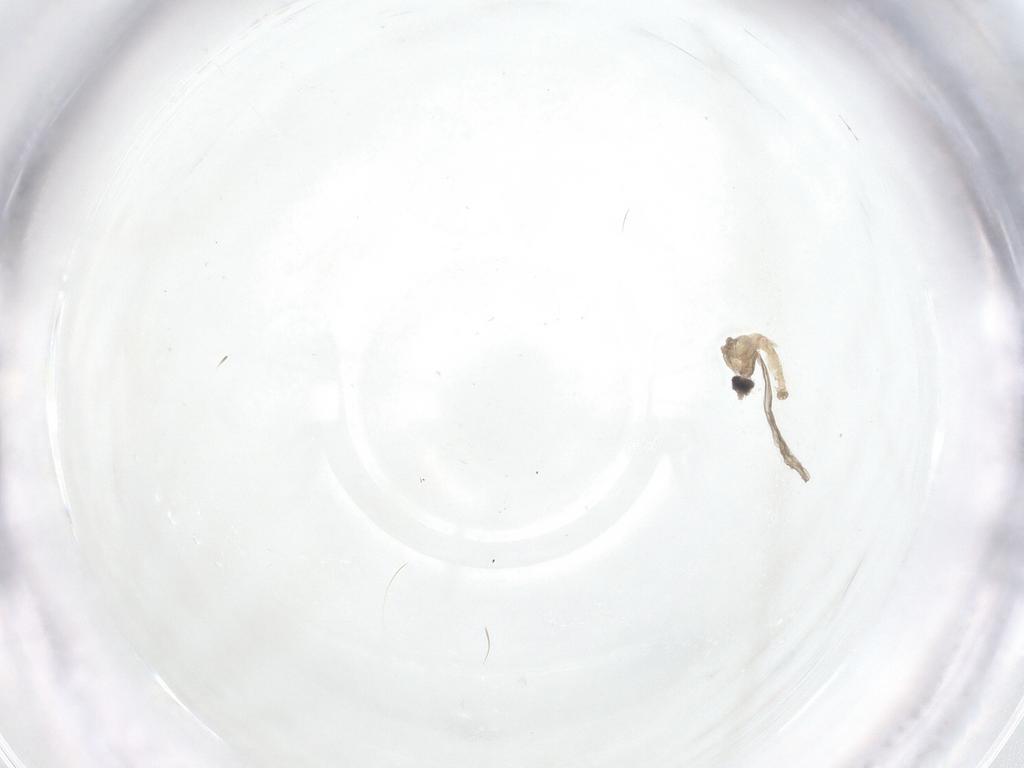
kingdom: Animalia
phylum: Arthropoda
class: Insecta
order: Diptera
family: Cecidomyiidae
